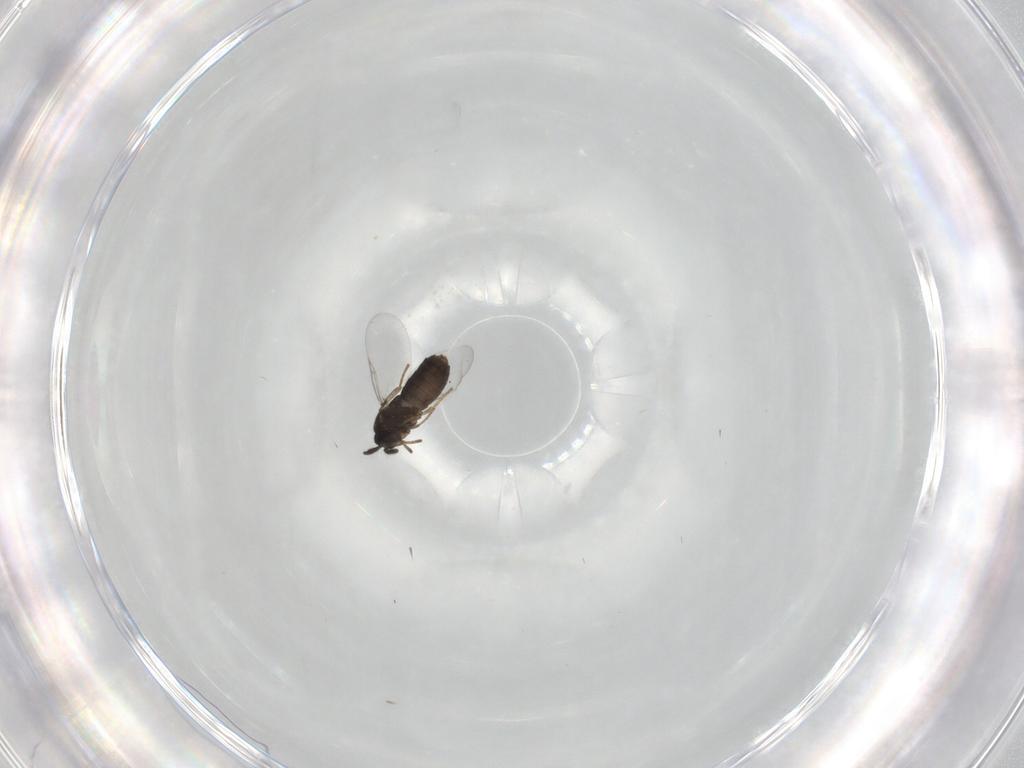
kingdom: Animalia
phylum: Arthropoda
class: Insecta
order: Diptera
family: Scatopsidae
